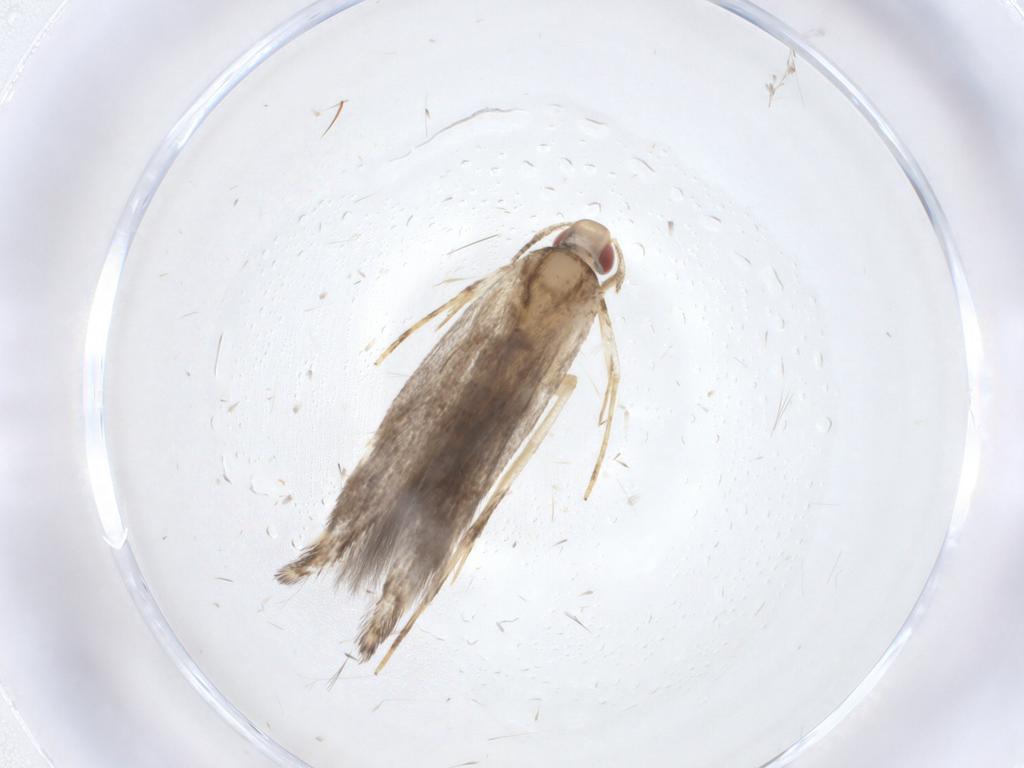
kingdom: Animalia
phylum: Arthropoda
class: Insecta
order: Lepidoptera
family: Cosmopterigidae
